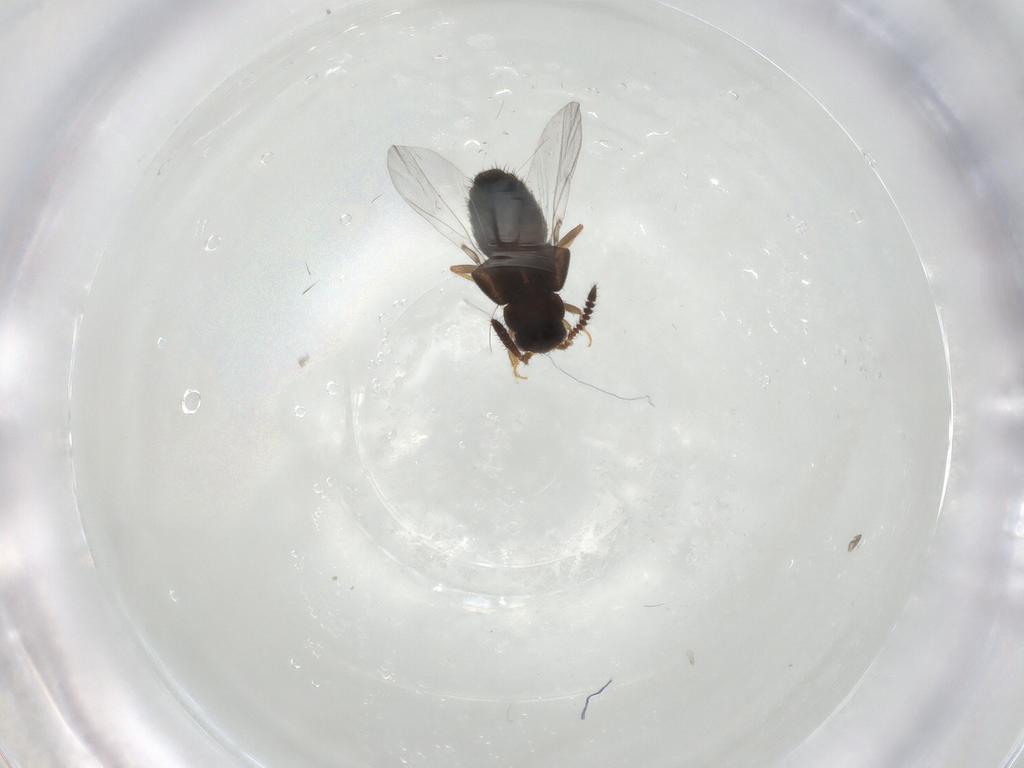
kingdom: Animalia
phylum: Arthropoda
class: Insecta
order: Coleoptera
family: Staphylinidae
